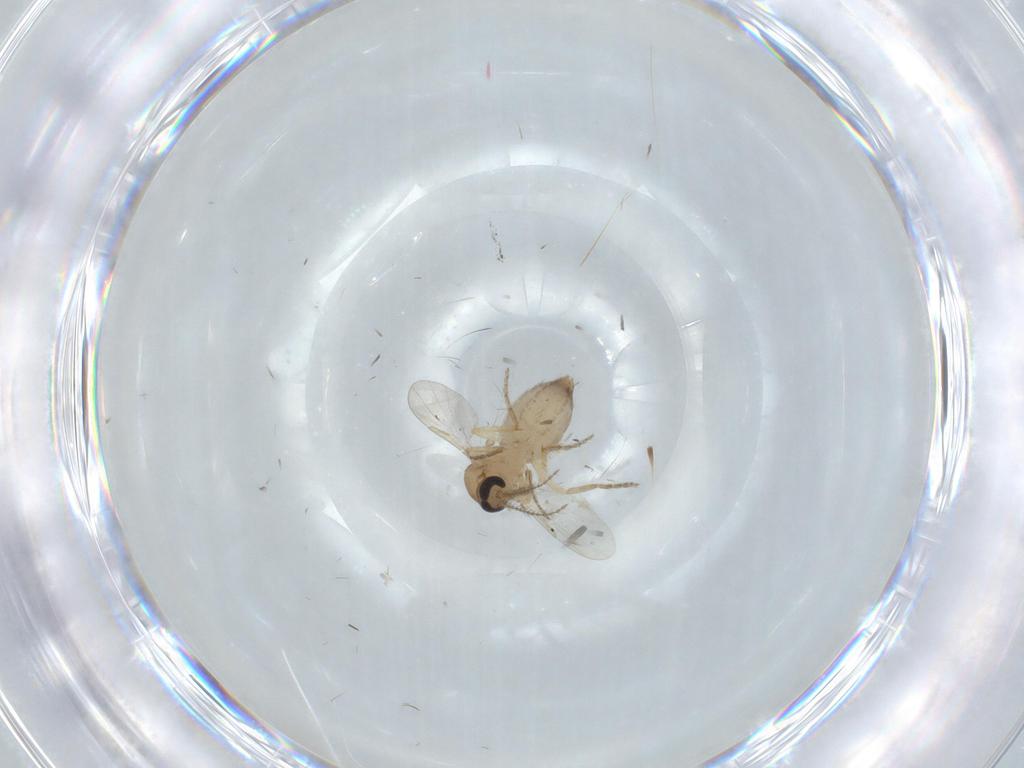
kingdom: Animalia
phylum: Arthropoda
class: Insecta
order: Diptera
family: Ceratopogonidae
